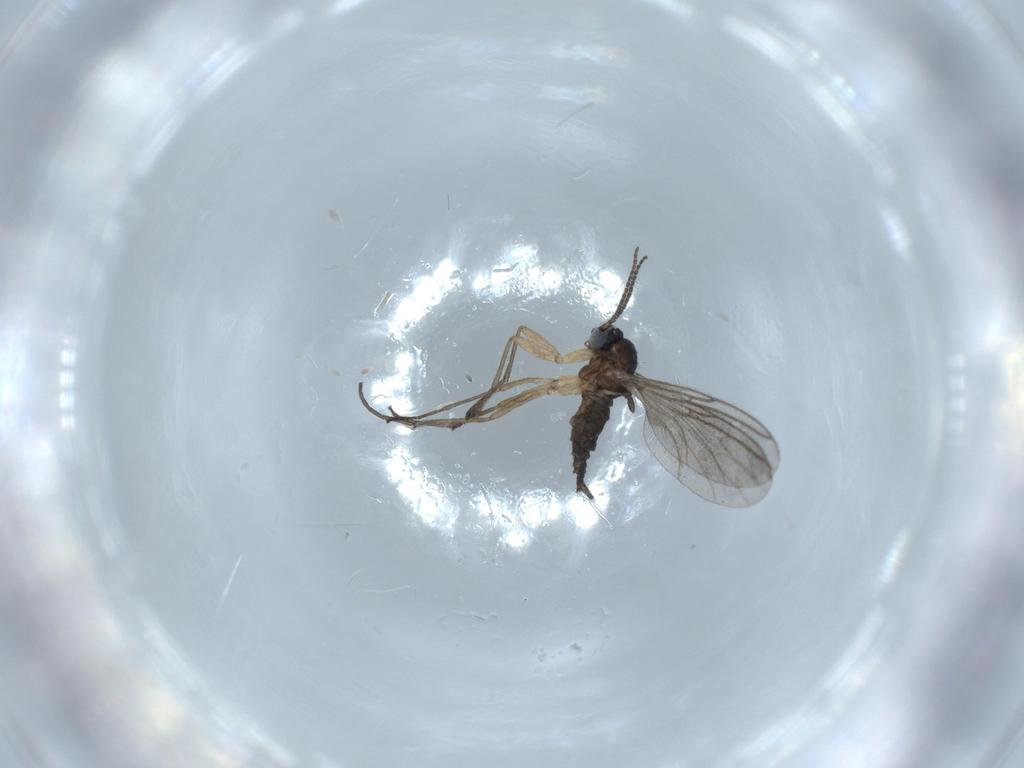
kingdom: Animalia
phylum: Arthropoda
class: Insecta
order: Diptera
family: Sciaridae
